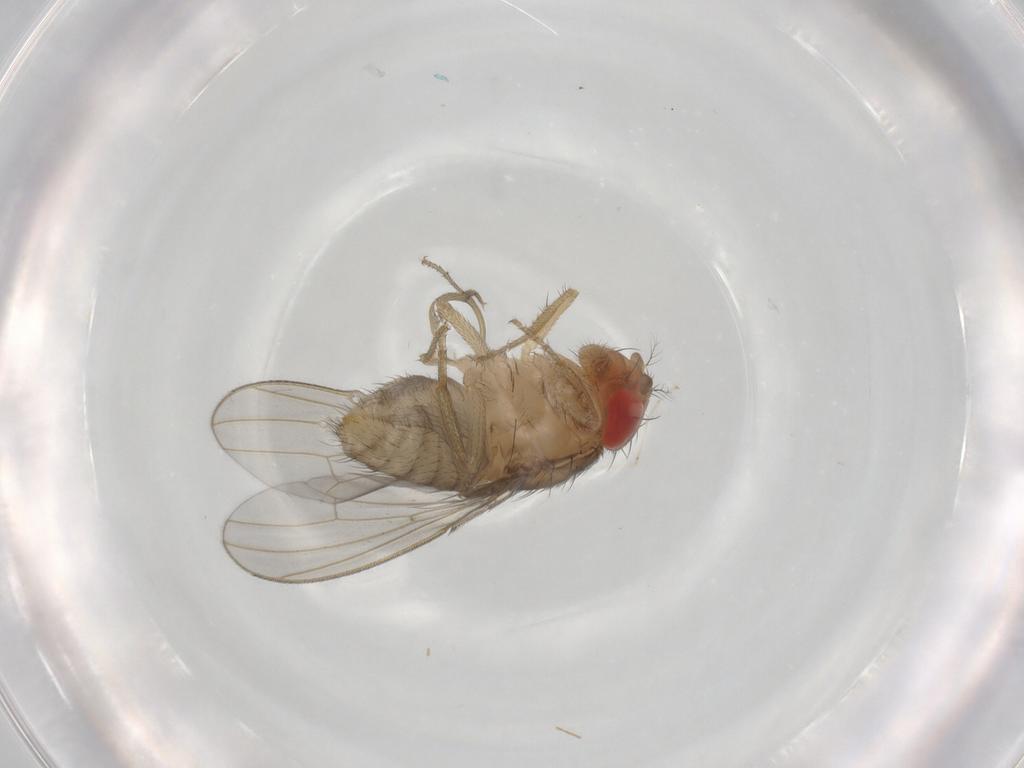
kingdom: Animalia
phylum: Arthropoda
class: Insecta
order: Diptera
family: Drosophilidae
